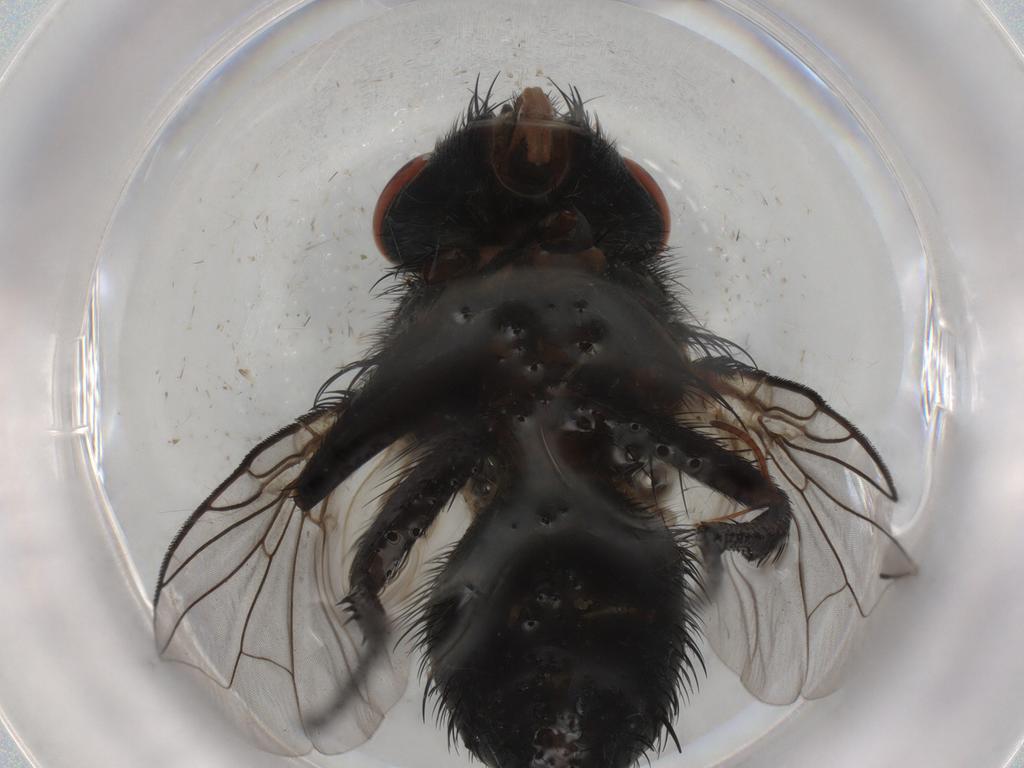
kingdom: Animalia
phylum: Arthropoda
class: Insecta
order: Diptera
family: Tachinidae
